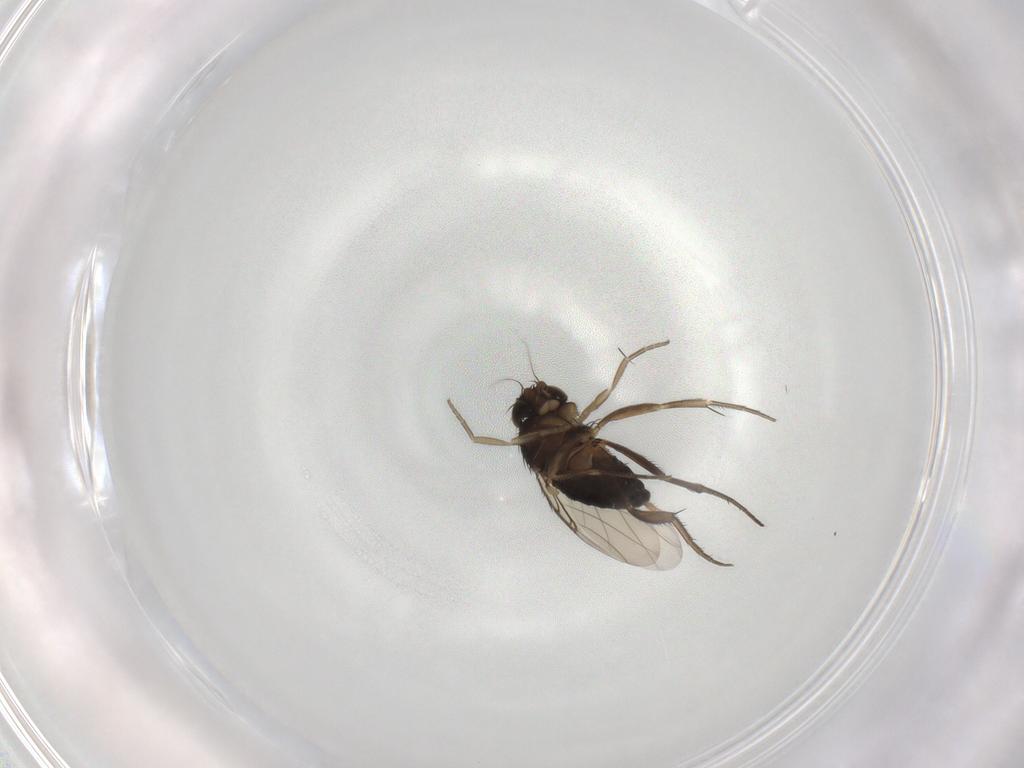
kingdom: Animalia
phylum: Arthropoda
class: Insecta
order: Diptera
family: Phoridae
